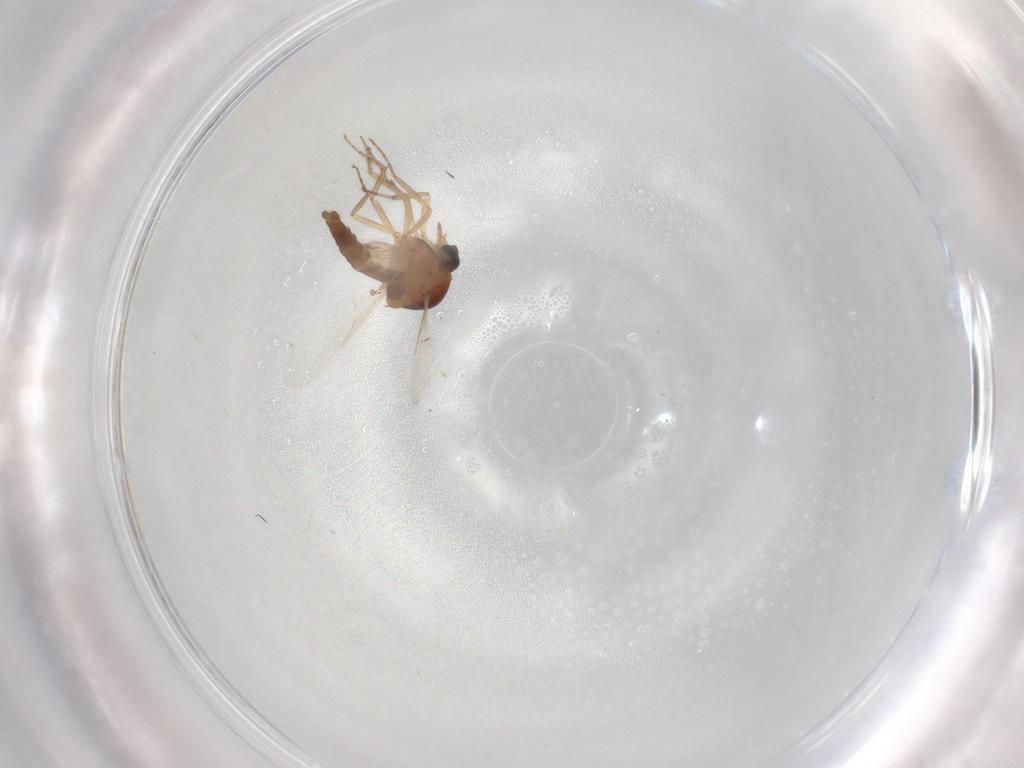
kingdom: Animalia
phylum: Arthropoda
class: Insecta
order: Diptera
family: Ceratopogonidae
